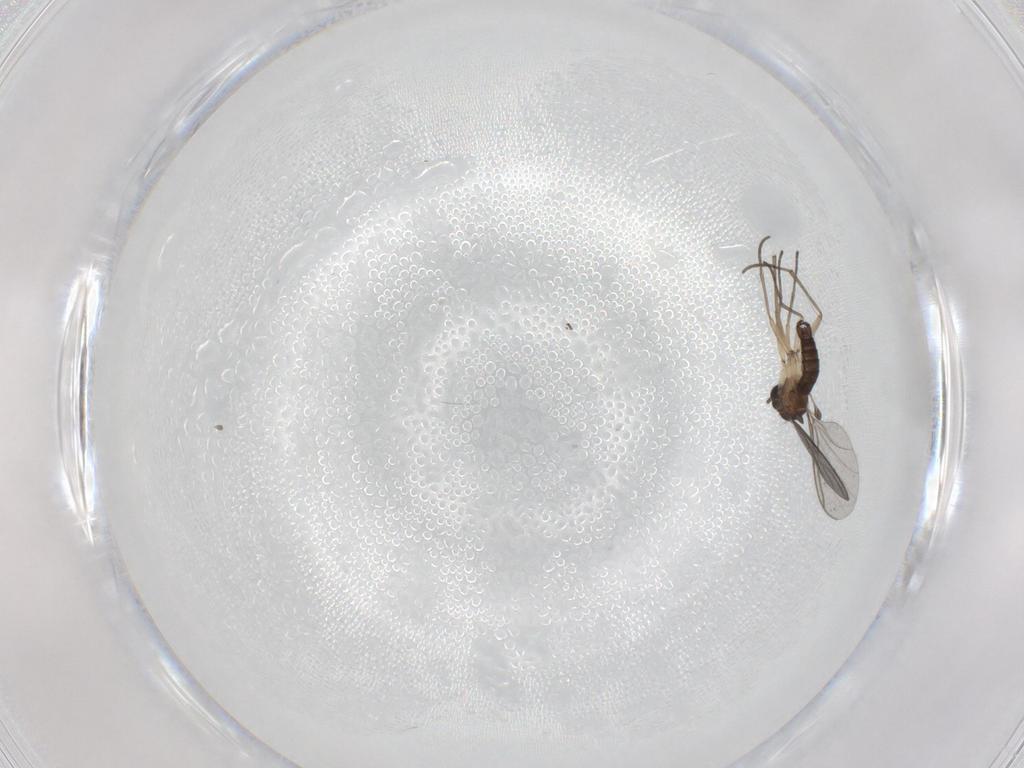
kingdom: Animalia
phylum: Arthropoda
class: Insecta
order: Diptera
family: Sciaridae
